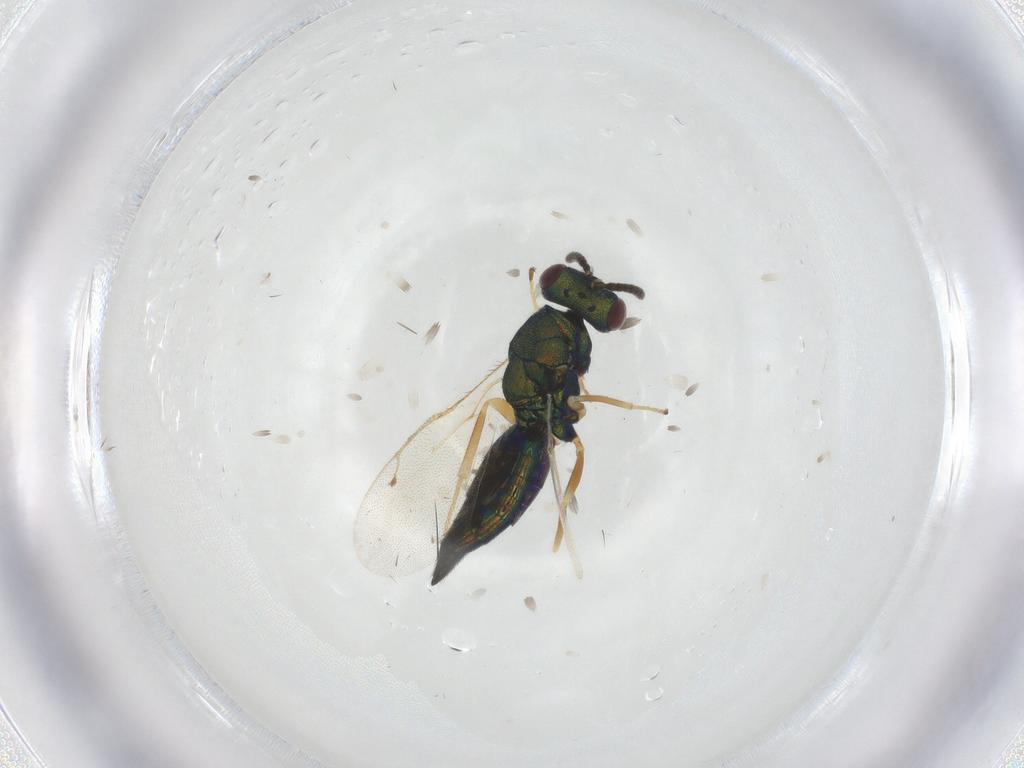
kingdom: Animalia
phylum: Arthropoda
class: Insecta
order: Hymenoptera
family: Pteromalidae
